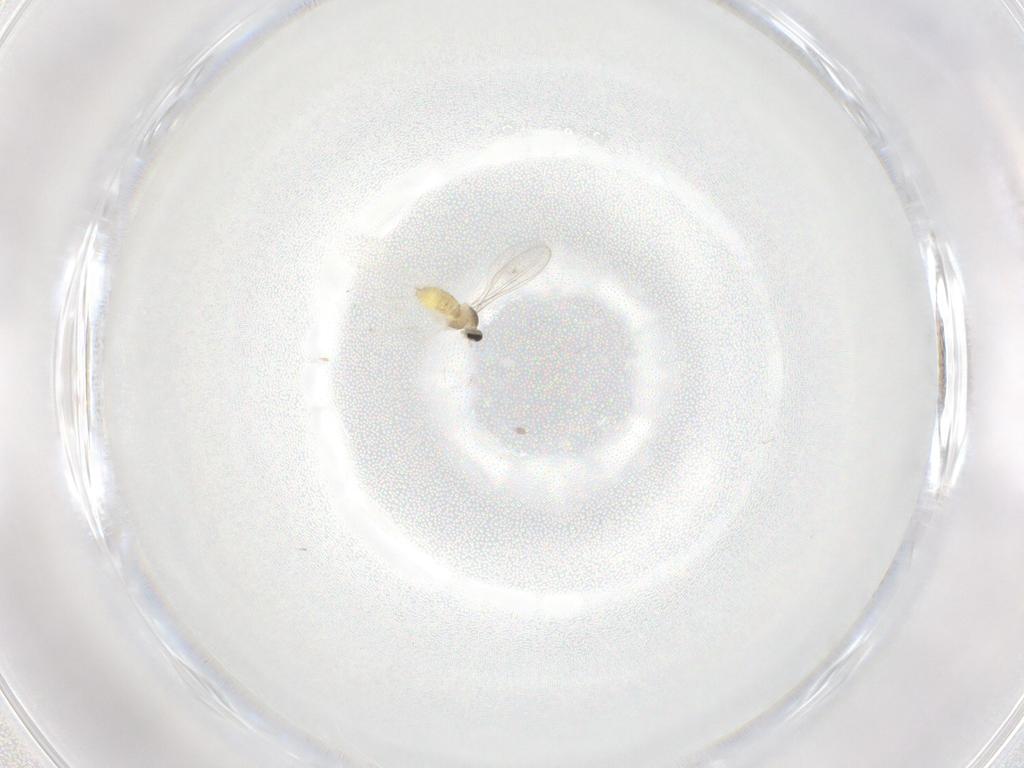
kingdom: Animalia
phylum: Arthropoda
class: Insecta
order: Diptera
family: Cecidomyiidae
